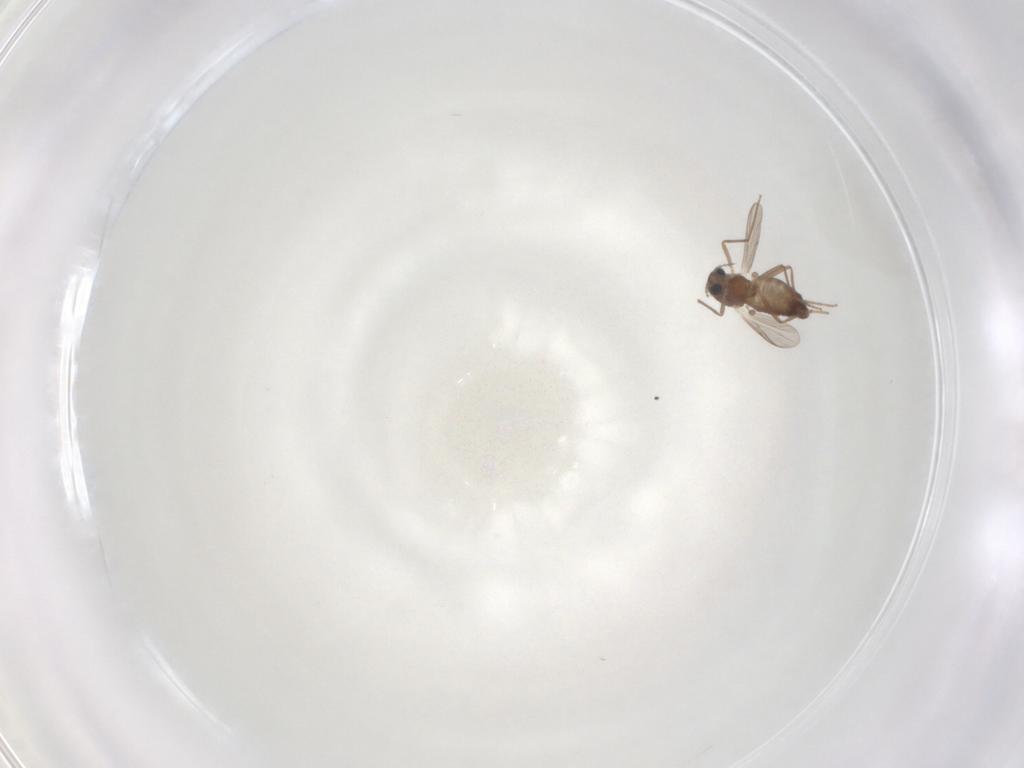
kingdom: Animalia
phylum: Arthropoda
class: Insecta
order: Diptera
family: Chironomidae
